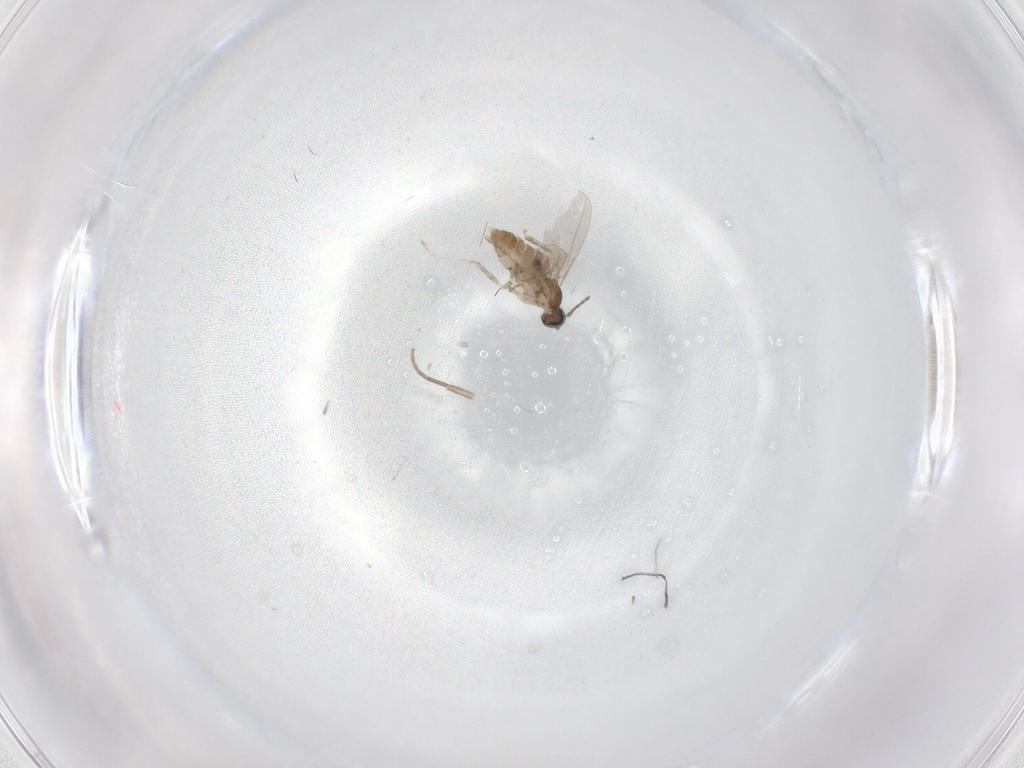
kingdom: Animalia
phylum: Arthropoda
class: Insecta
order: Diptera
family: Cecidomyiidae
